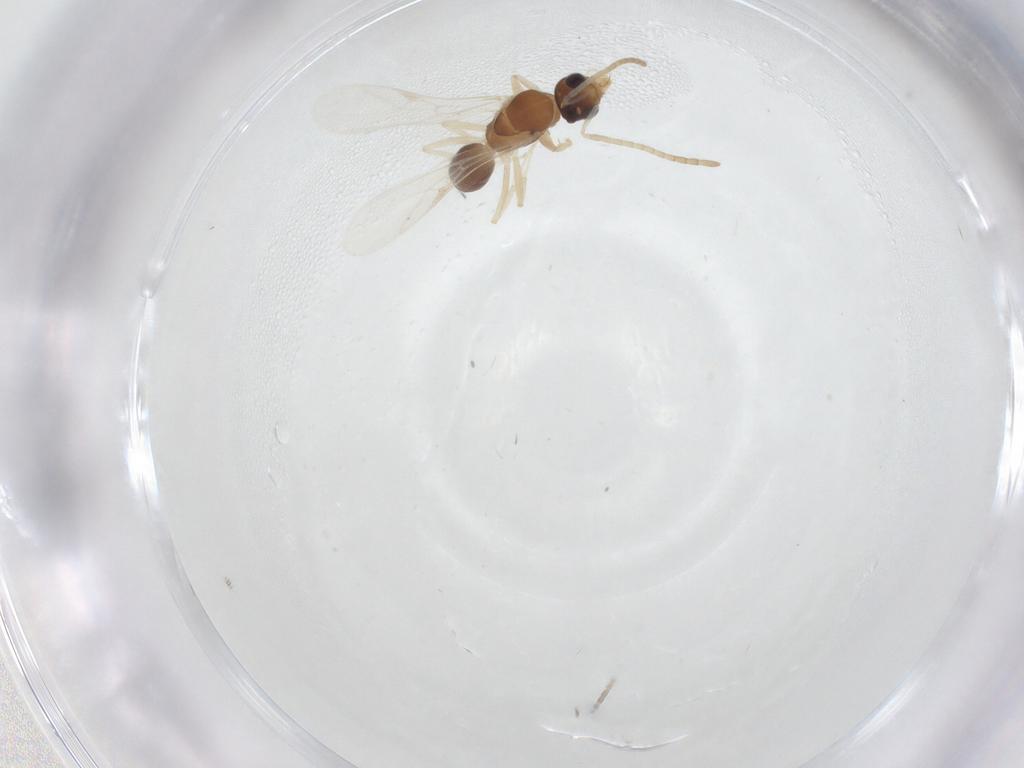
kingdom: Animalia
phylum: Arthropoda
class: Insecta
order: Hymenoptera
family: Formicidae
